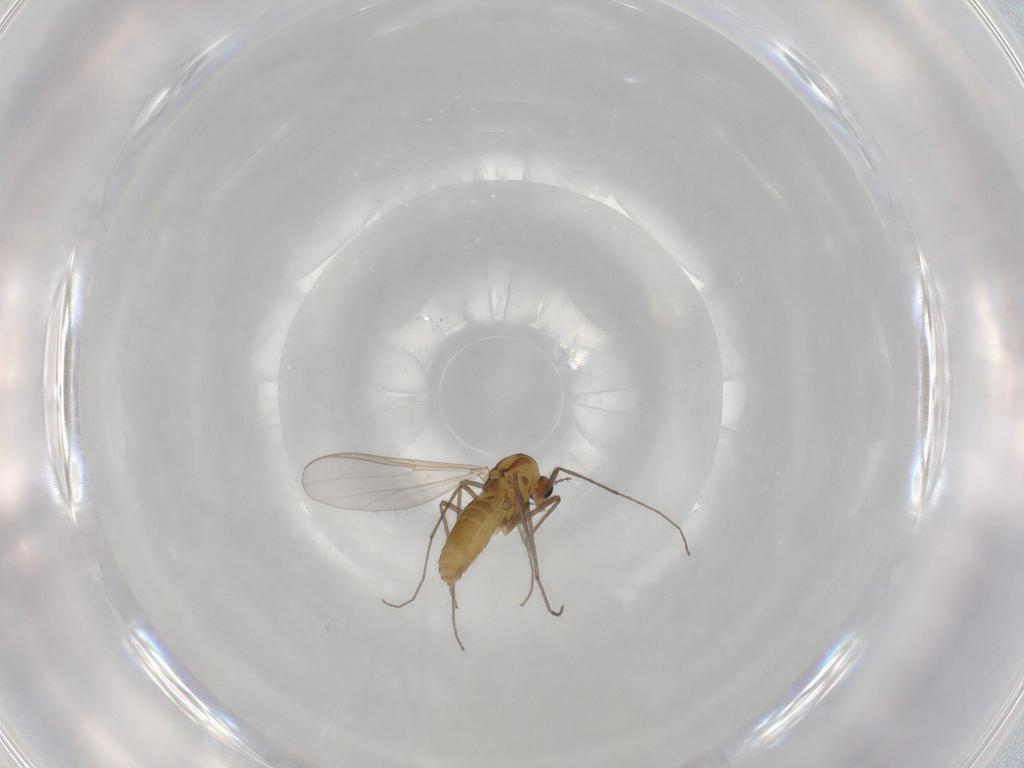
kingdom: Animalia
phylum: Arthropoda
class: Insecta
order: Diptera
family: Chironomidae
